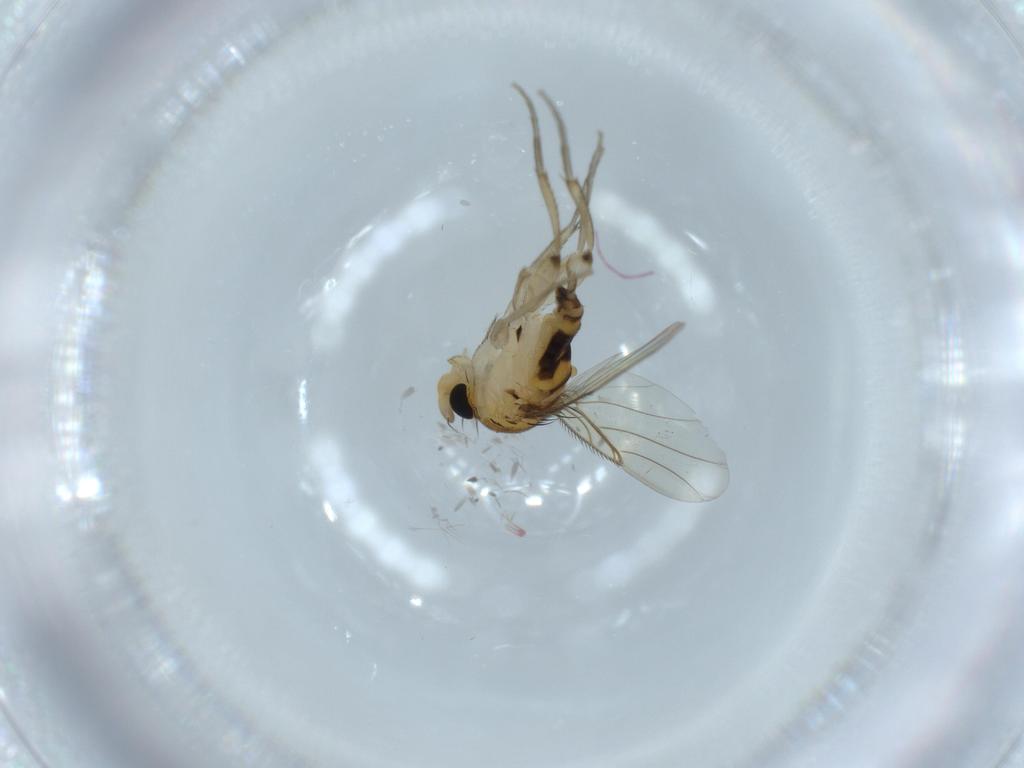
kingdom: Animalia
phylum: Arthropoda
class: Insecta
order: Diptera
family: Phoridae
